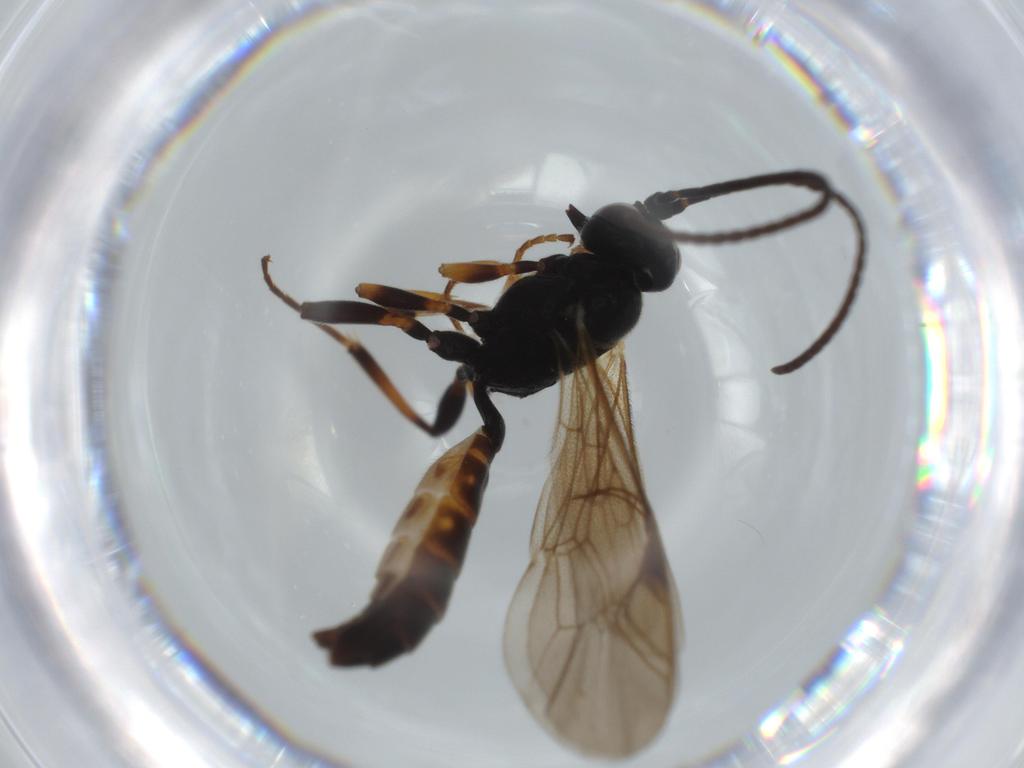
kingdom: Animalia
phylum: Arthropoda
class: Insecta
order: Hymenoptera
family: Ichneumonidae
